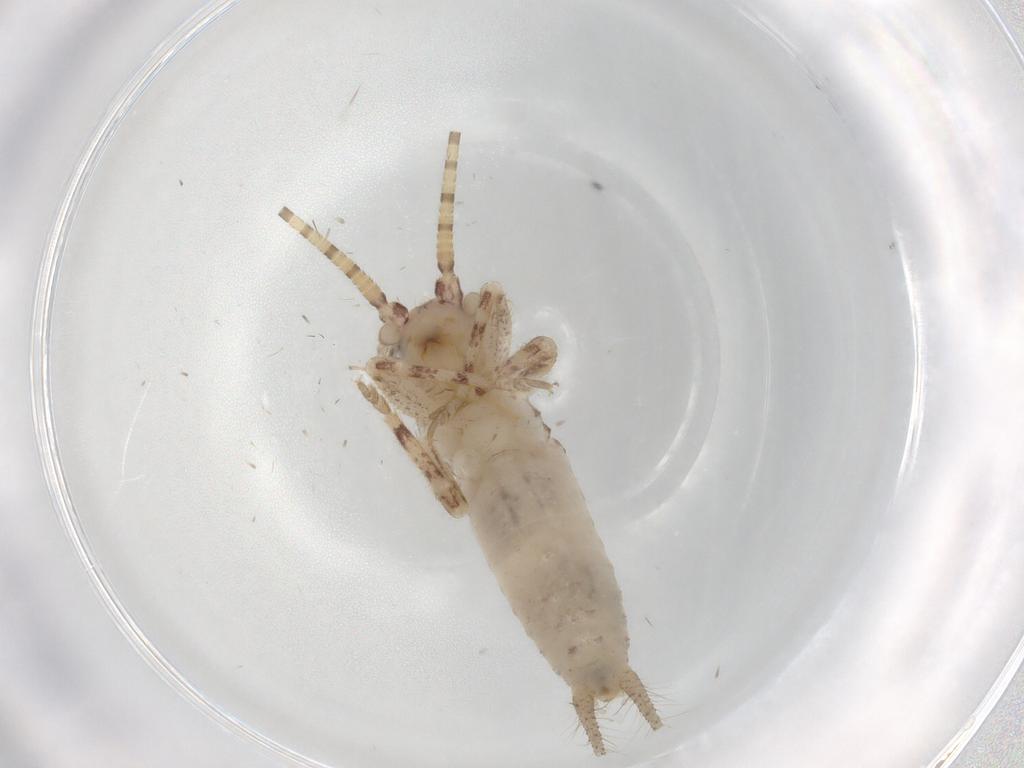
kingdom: Animalia
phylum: Arthropoda
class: Insecta
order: Orthoptera
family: Gryllidae
